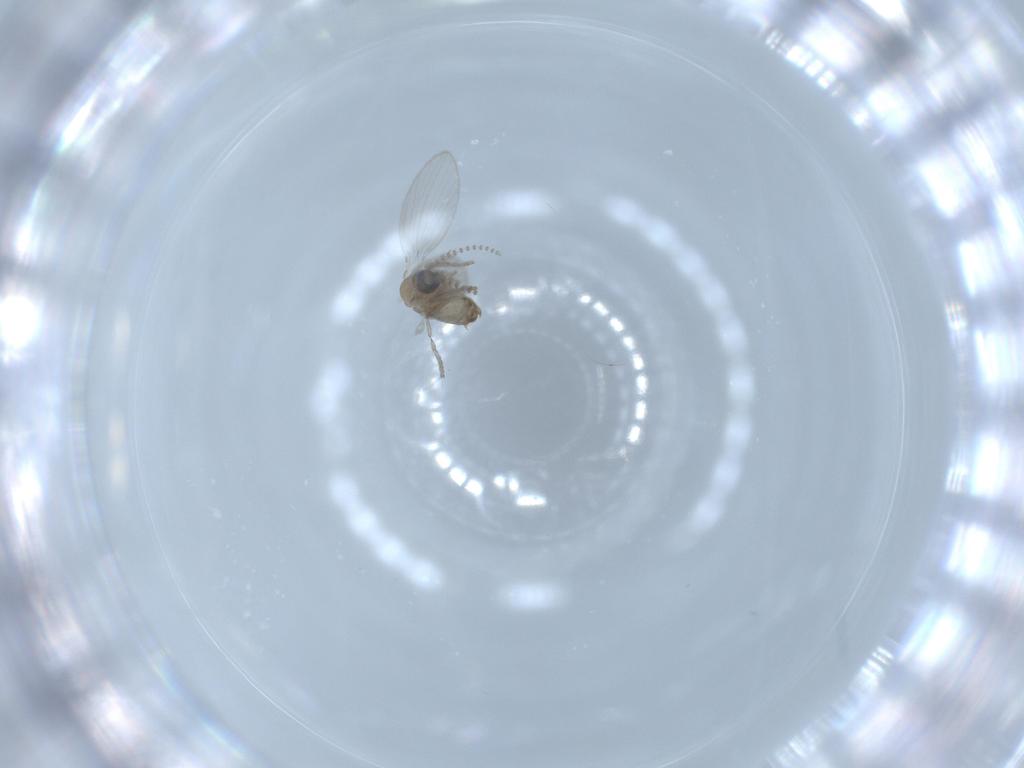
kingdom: Animalia
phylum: Arthropoda
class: Insecta
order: Diptera
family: Psychodidae
